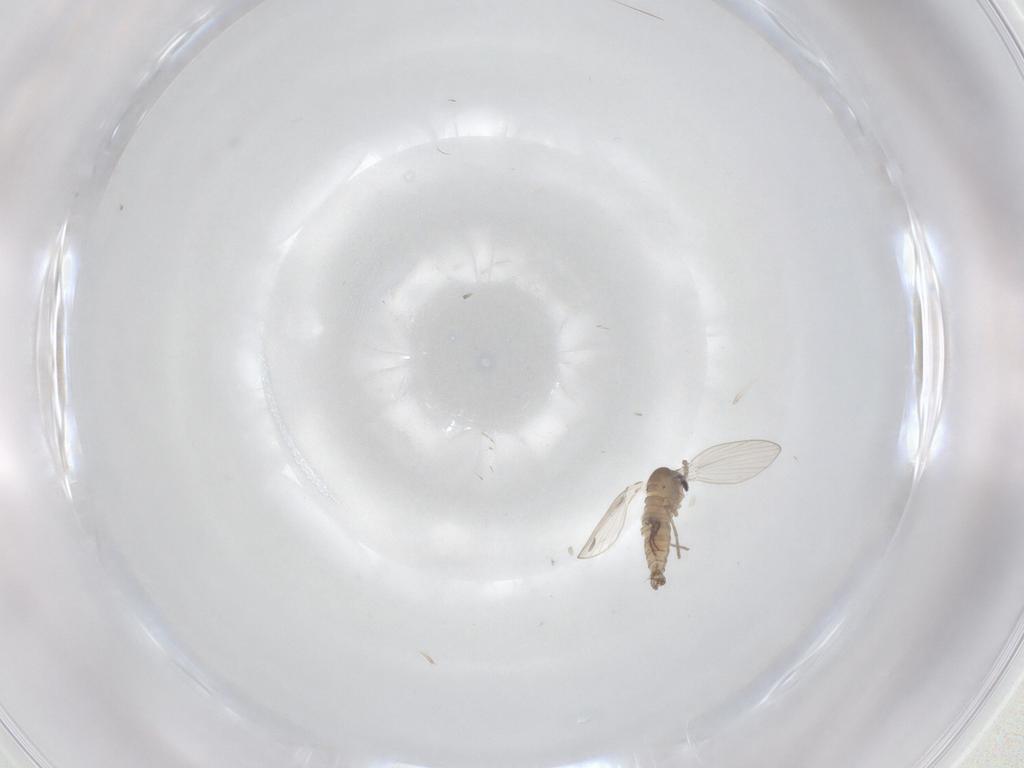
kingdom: Animalia
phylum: Arthropoda
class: Insecta
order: Diptera
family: Psychodidae
